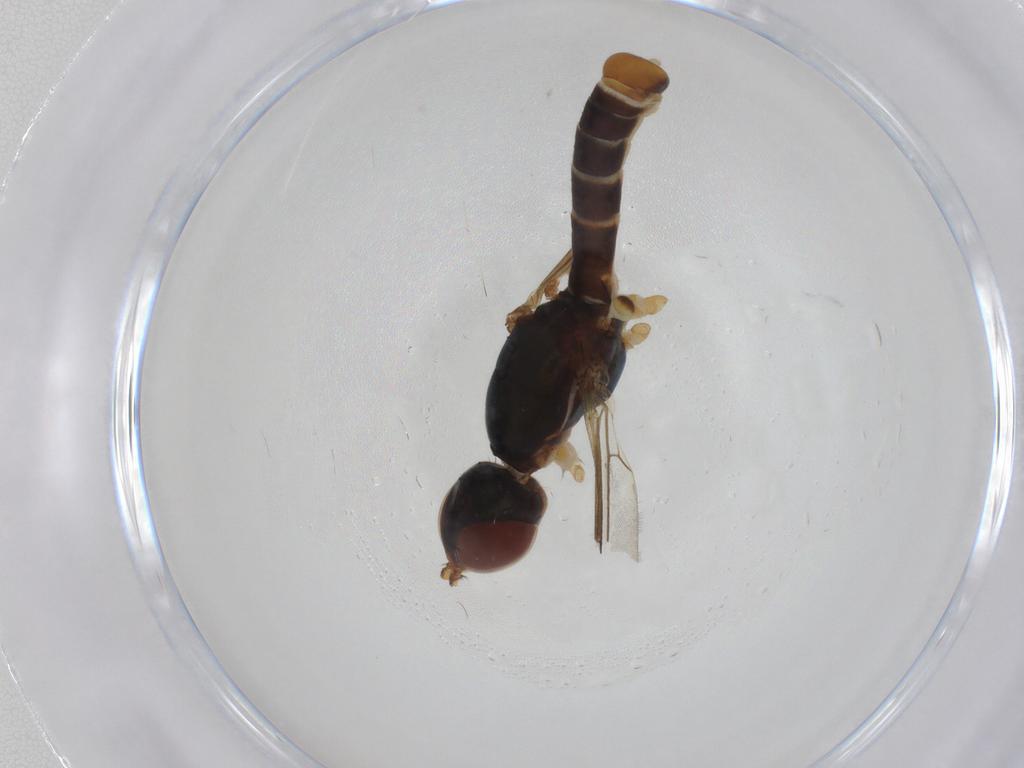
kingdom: Animalia
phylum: Arthropoda
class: Insecta
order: Diptera
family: Micropezidae
